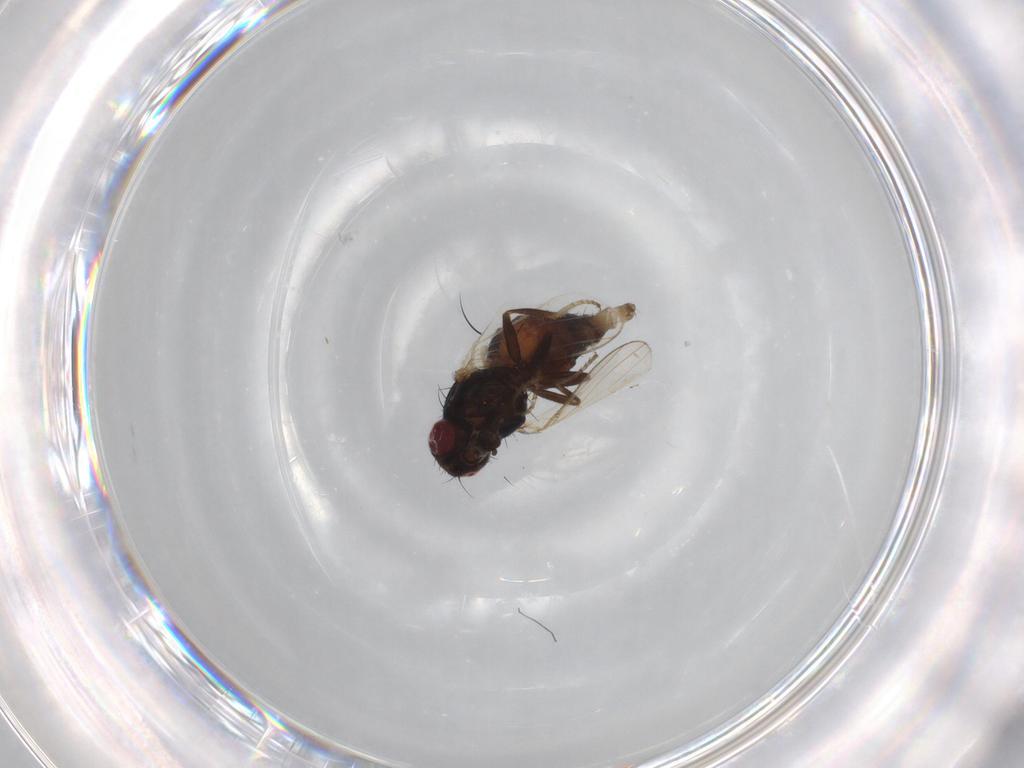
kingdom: Animalia
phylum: Arthropoda
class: Insecta
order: Diptera
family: Carnidae
